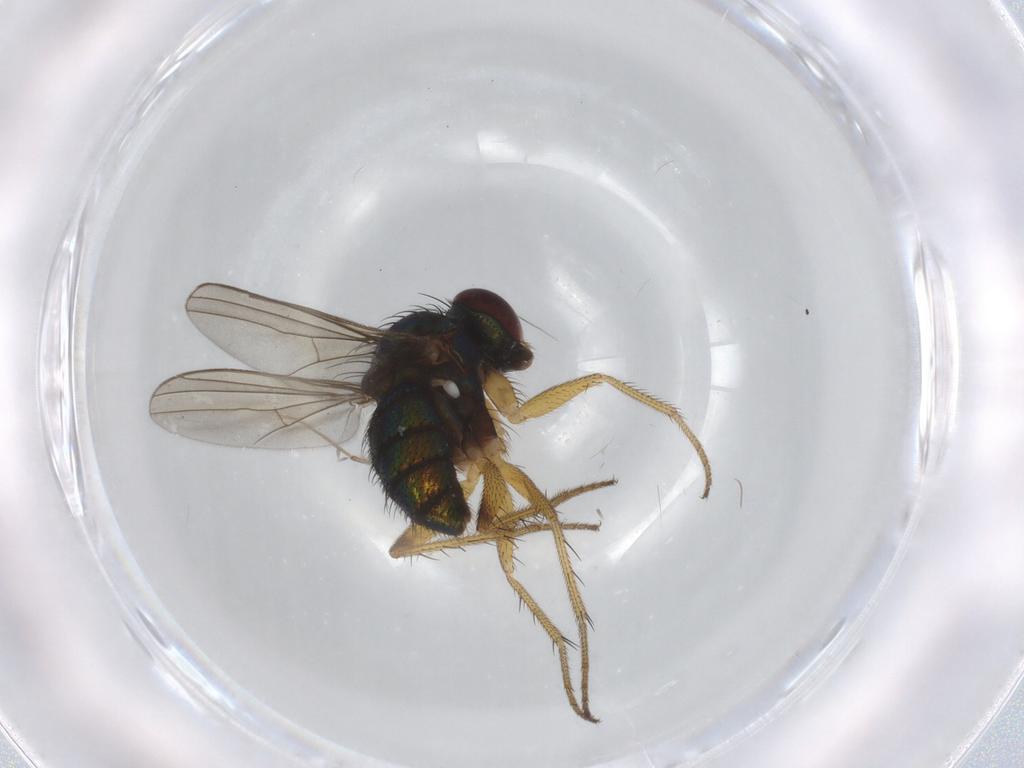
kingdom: Animalia
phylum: Arthropoda
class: Insecta
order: Diptera
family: Dolichopodidae
